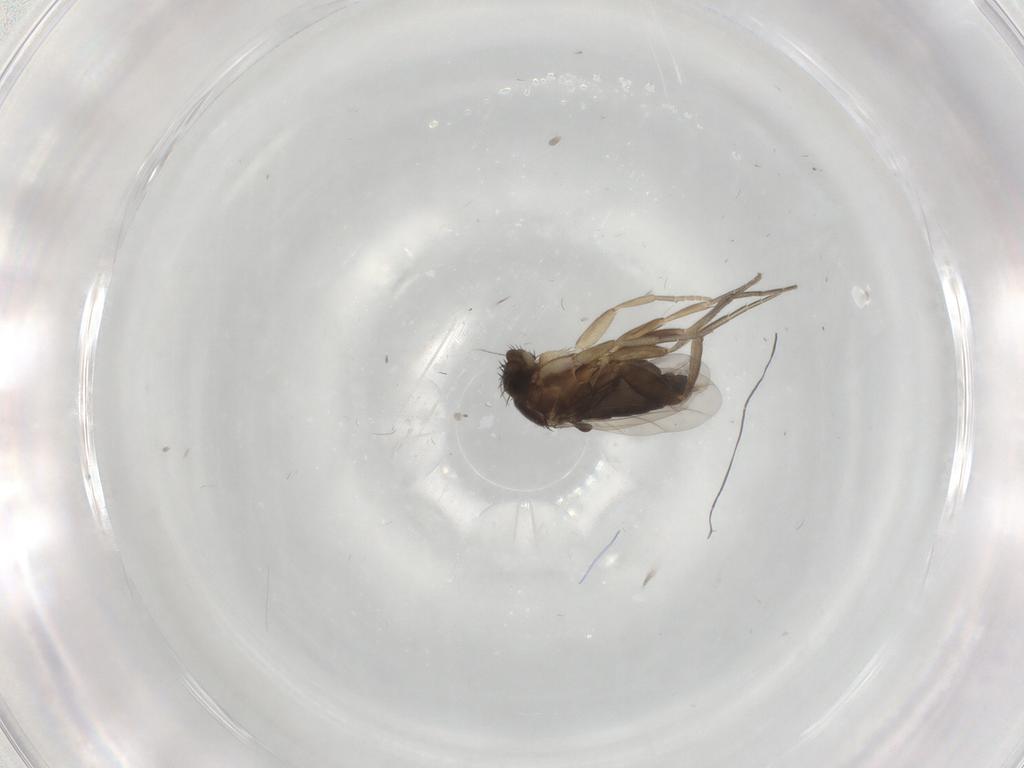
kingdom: Animalia
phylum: Arthropoda
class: Insecta
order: Diptera
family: Cecidomyiidae
